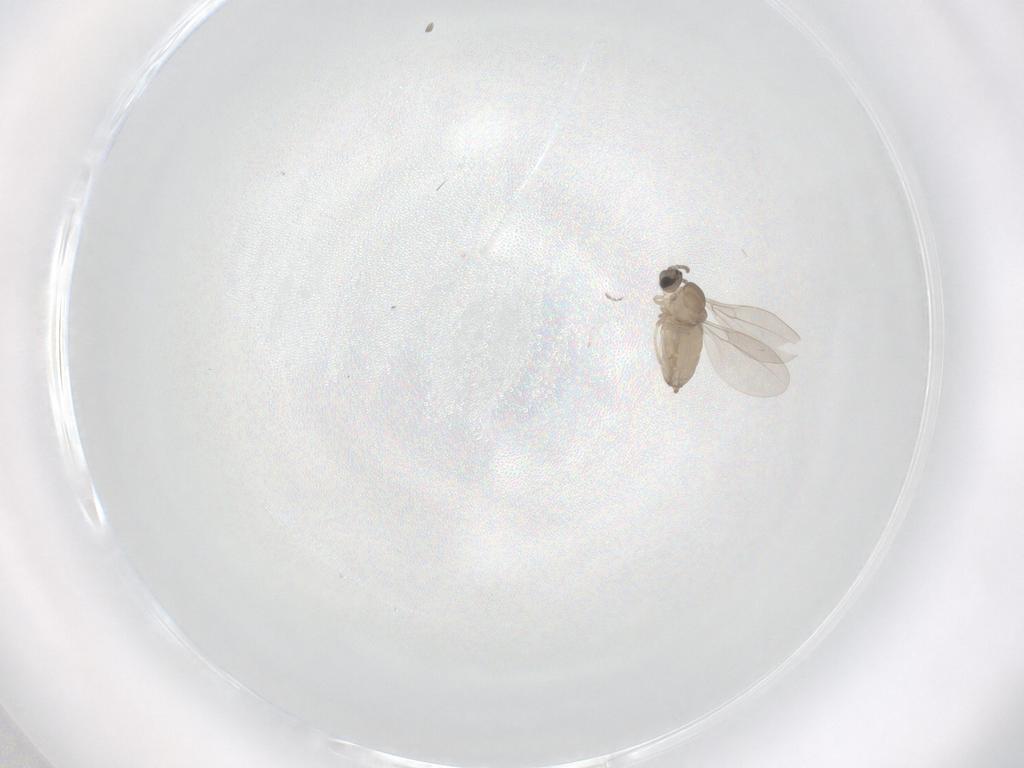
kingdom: Animalia
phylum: Arthropoda
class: Insecta
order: Diptera
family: Cecidomyiidae
